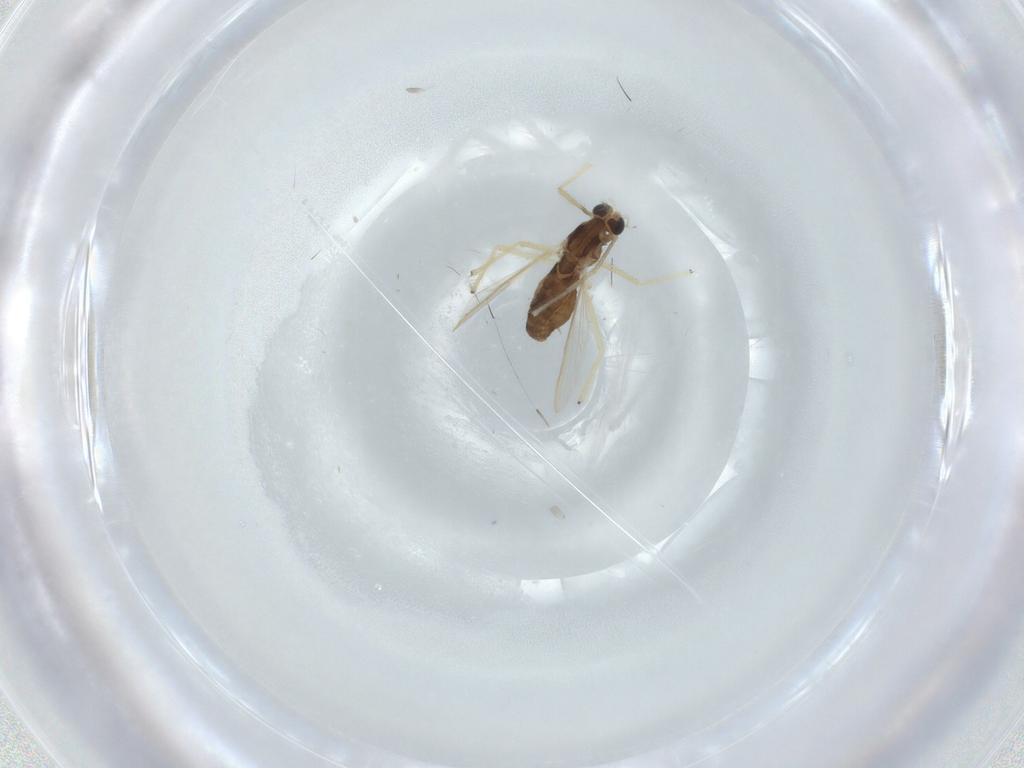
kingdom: Animalia
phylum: Arthropoda
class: Insecta
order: Diptera
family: Chironomidae
